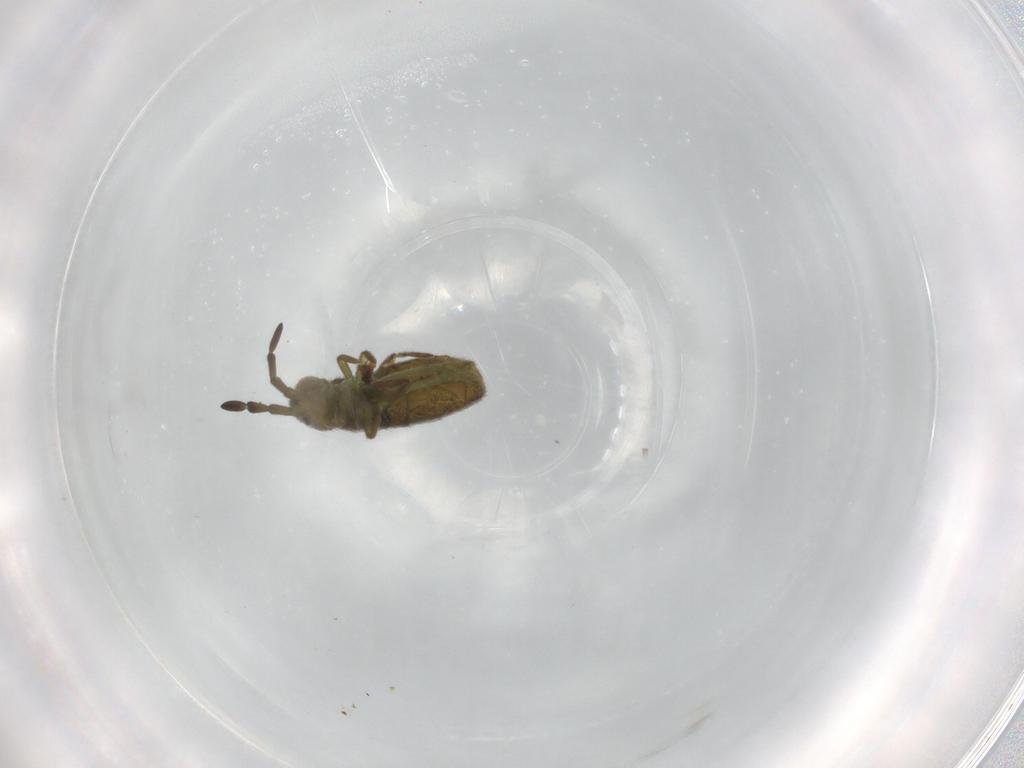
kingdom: Animalia
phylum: Arthropoda
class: Collembola
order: Entomobryomorpha
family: Isotomidae
